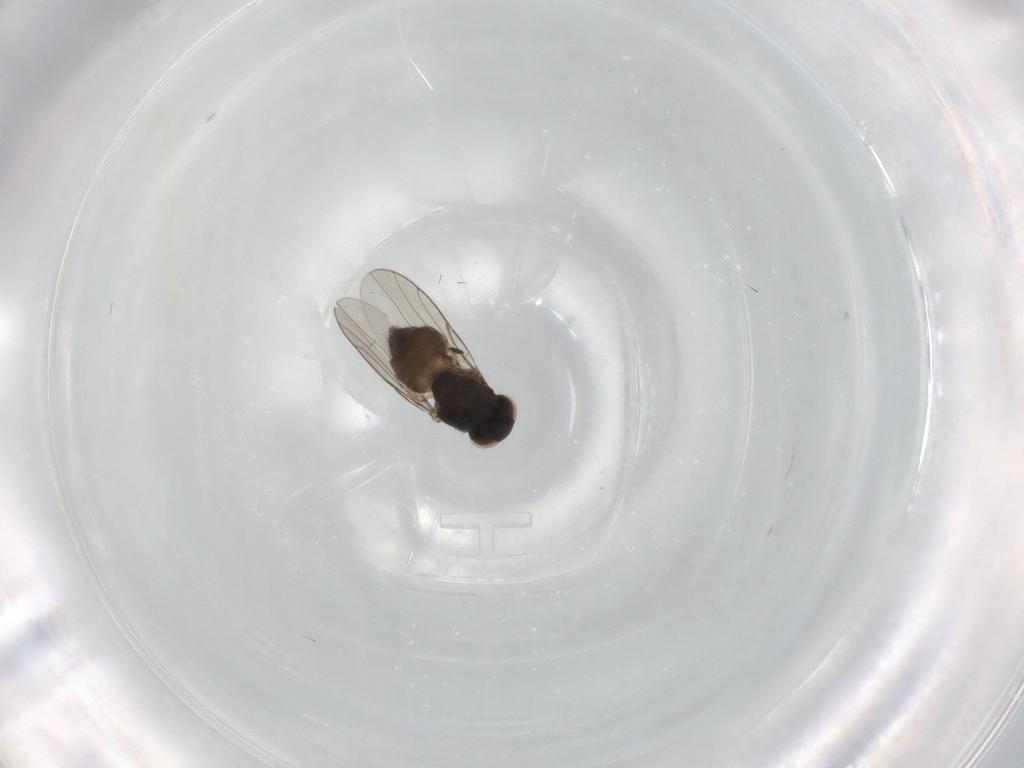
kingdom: Animalia
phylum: Arthropoda
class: Insecta
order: Diptera
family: Chloropidae
